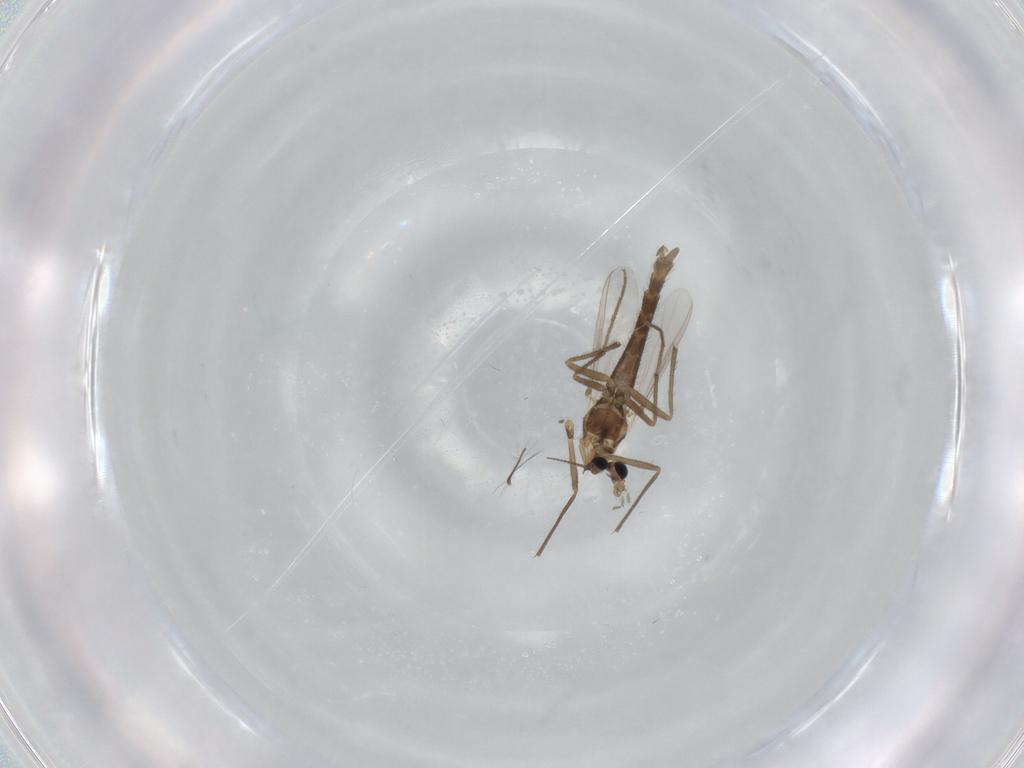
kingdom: Animalia
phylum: Arthropoda
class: Insecta
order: Diptera
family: Chironomidae
